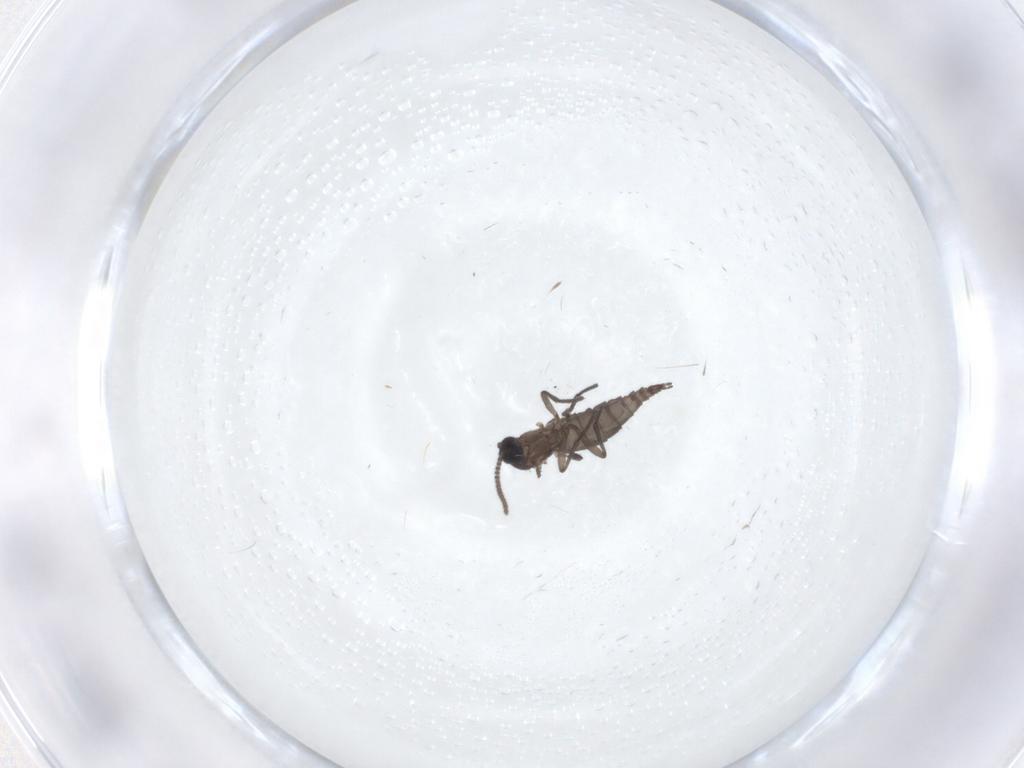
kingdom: Animalia
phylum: Arthropoda
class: Insecta
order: Diptera
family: Sciaridae
